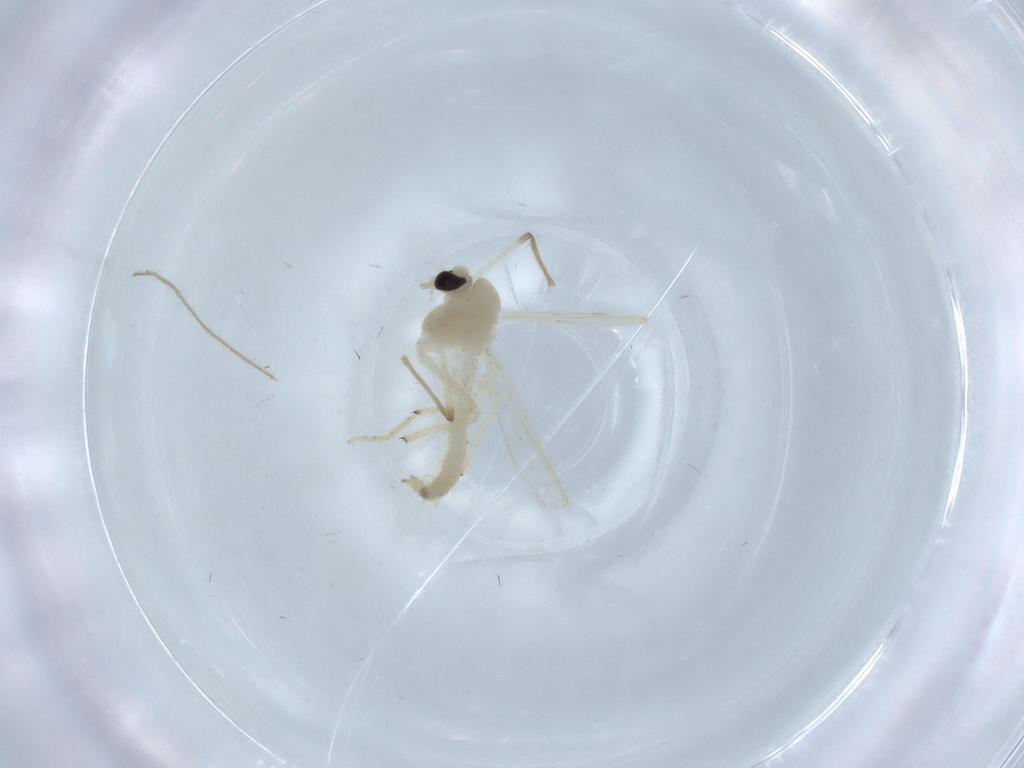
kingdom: Animalia
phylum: Arthropoda
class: Insecta
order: Diptera
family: Chironomidae
